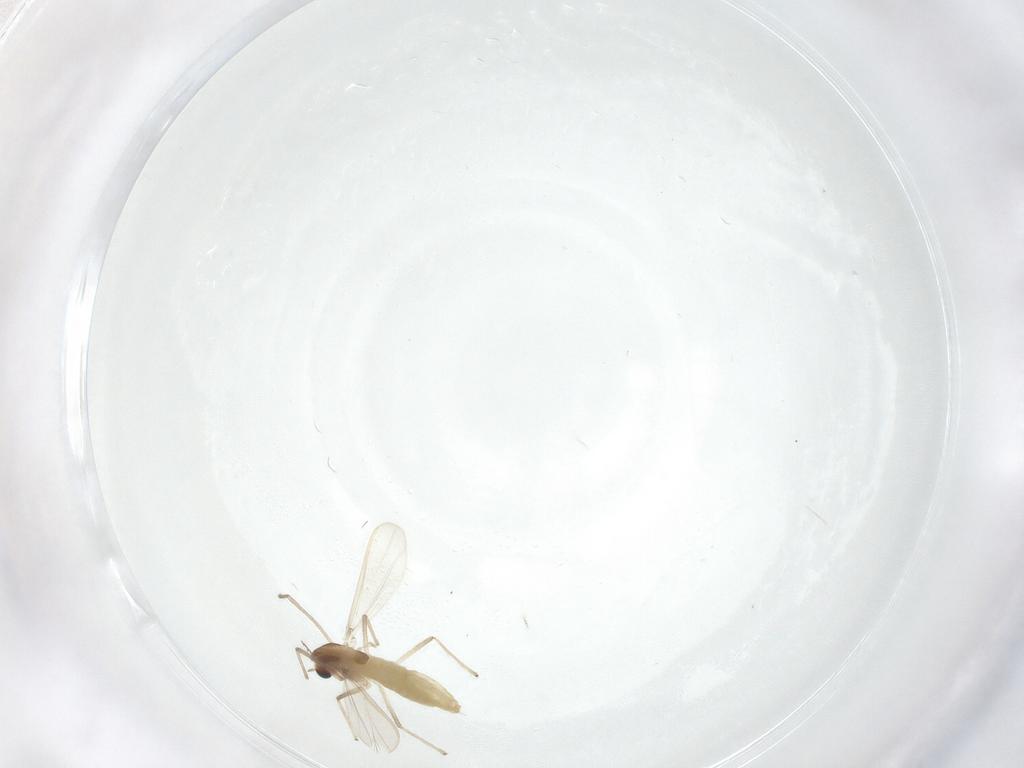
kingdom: Animalia
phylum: Arthropoda
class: Insecta
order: Diptera
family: Chironomidae
